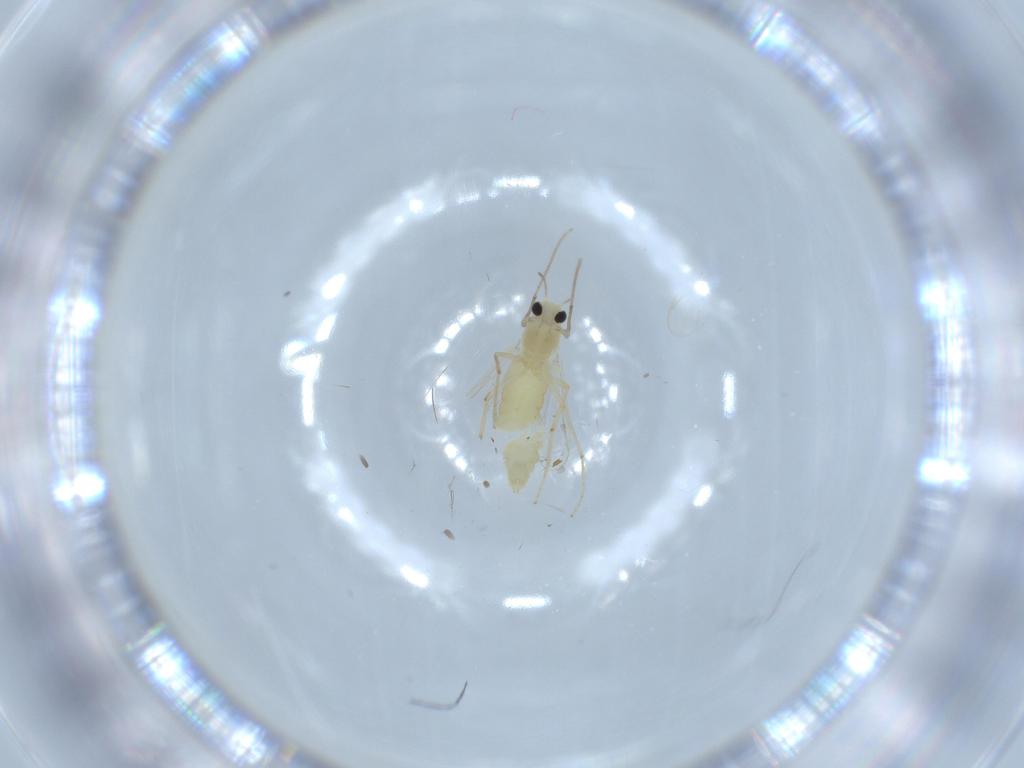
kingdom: Animalia
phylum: Arthropoda
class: Insecta
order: Diptera
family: Chironomidae
